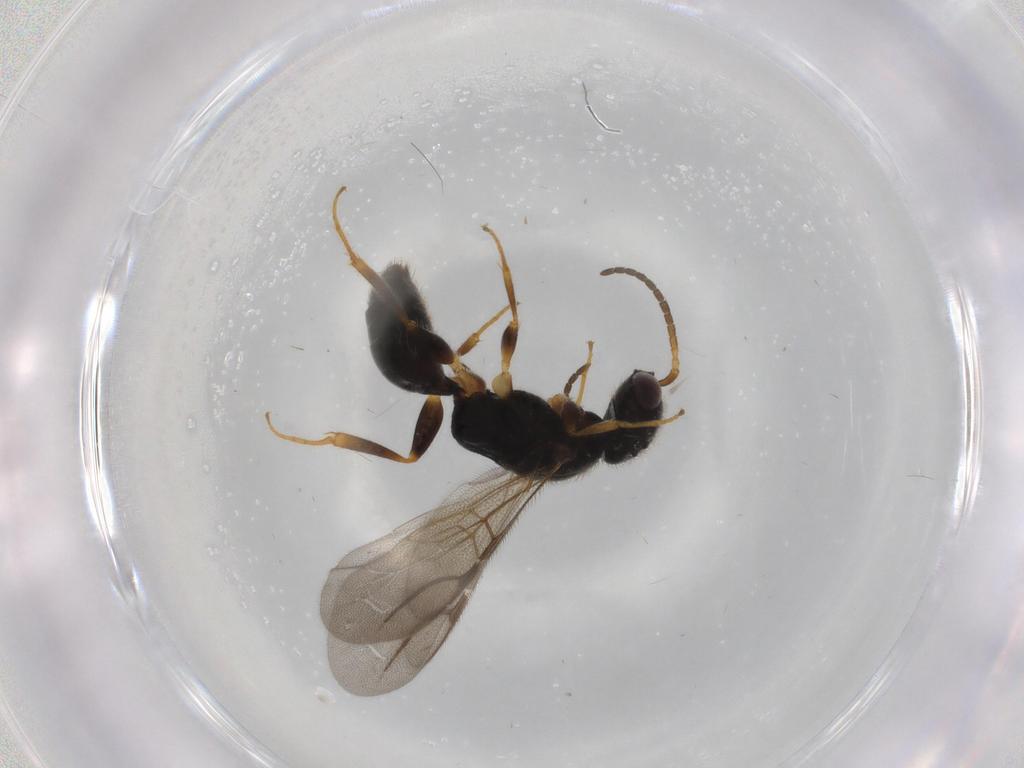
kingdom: Animalia
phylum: Arthropoda
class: Insecta
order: Hymenoptera
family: Bethylidae
